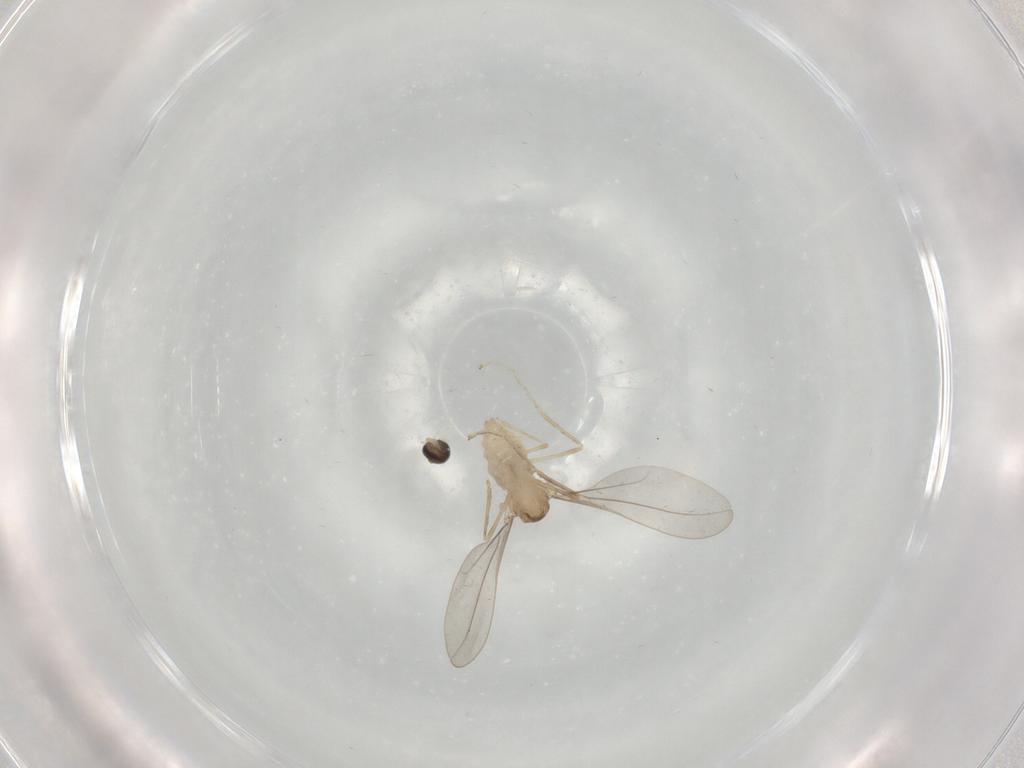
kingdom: Animalia
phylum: Arthropoda
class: Insecta
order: Diptera
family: Cecidomyiidae
